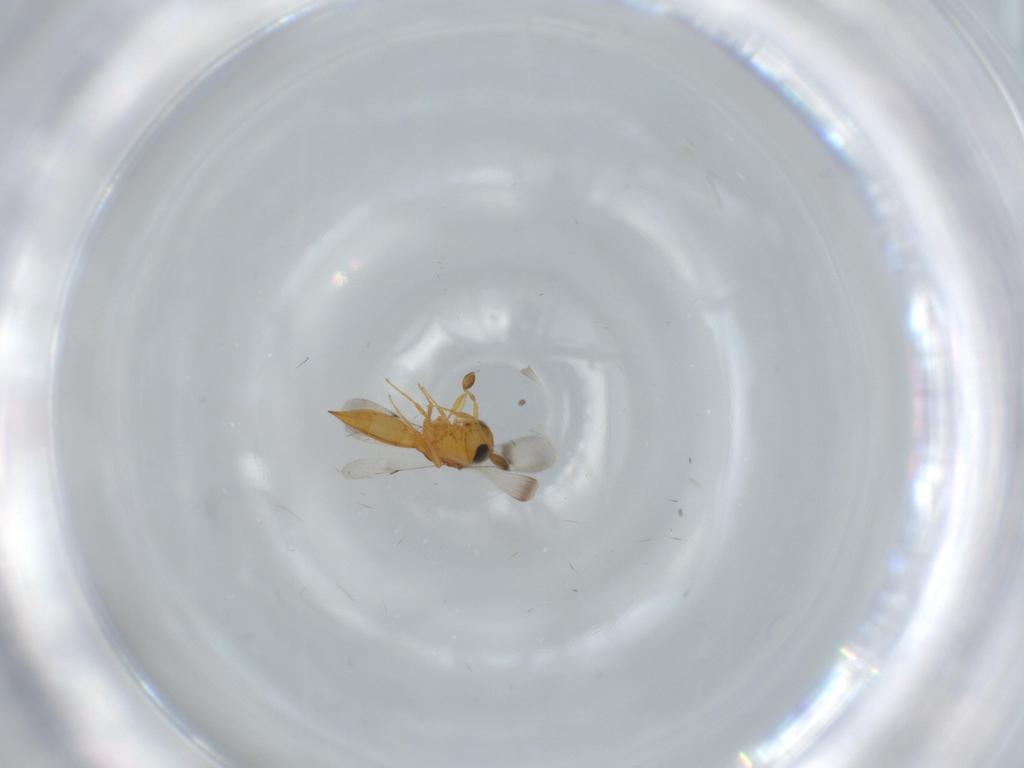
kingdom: Animalia
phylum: Arthropoda
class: Insecta
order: Hymenoptera
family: Scelionidae
